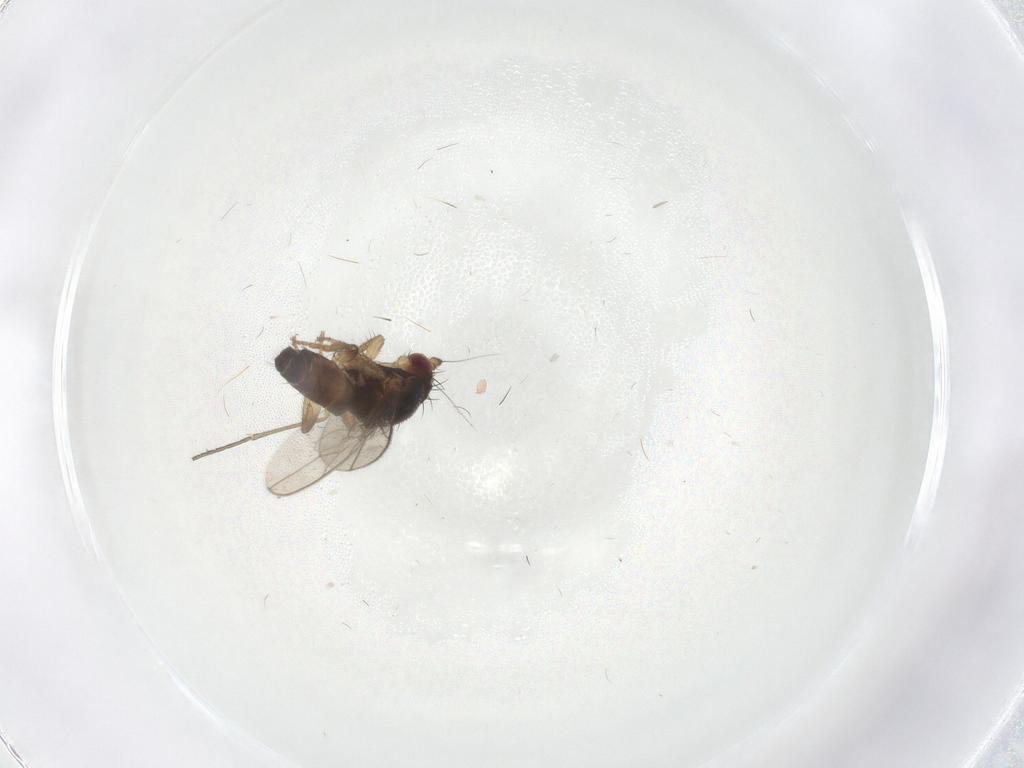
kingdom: Animalia
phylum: Arthropoda
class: Insecta
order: Diptera
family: Sphaeroceridae
